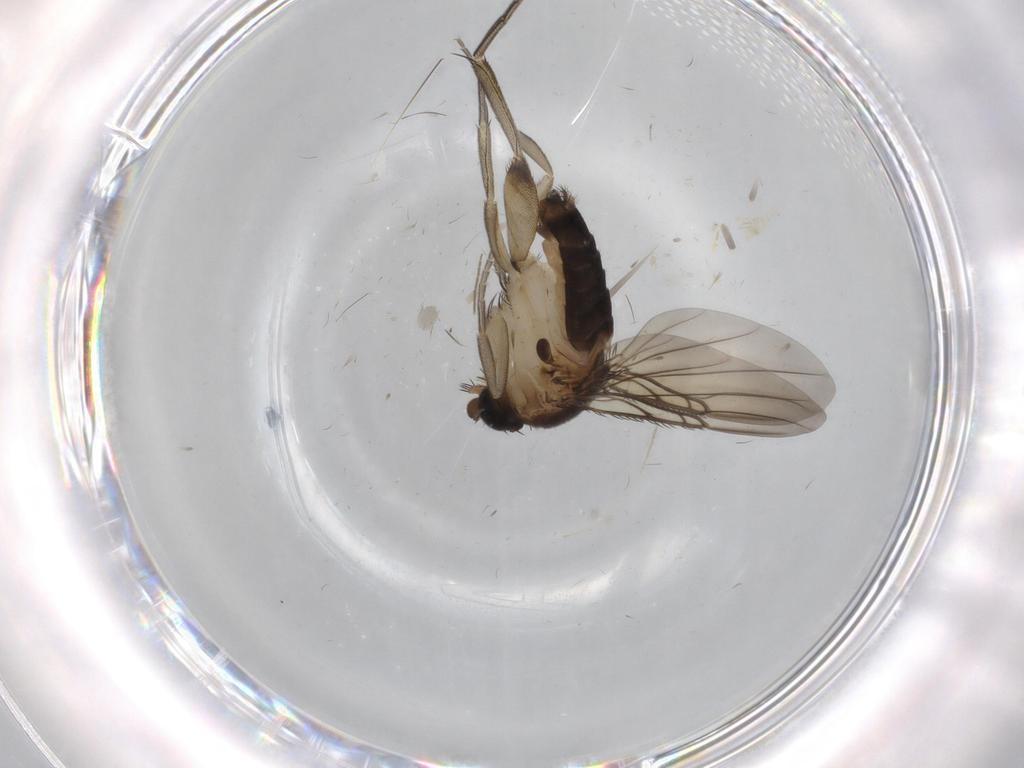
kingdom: Animalia
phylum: Arthropoda
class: Insecta
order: Diptera
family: Phoridae
